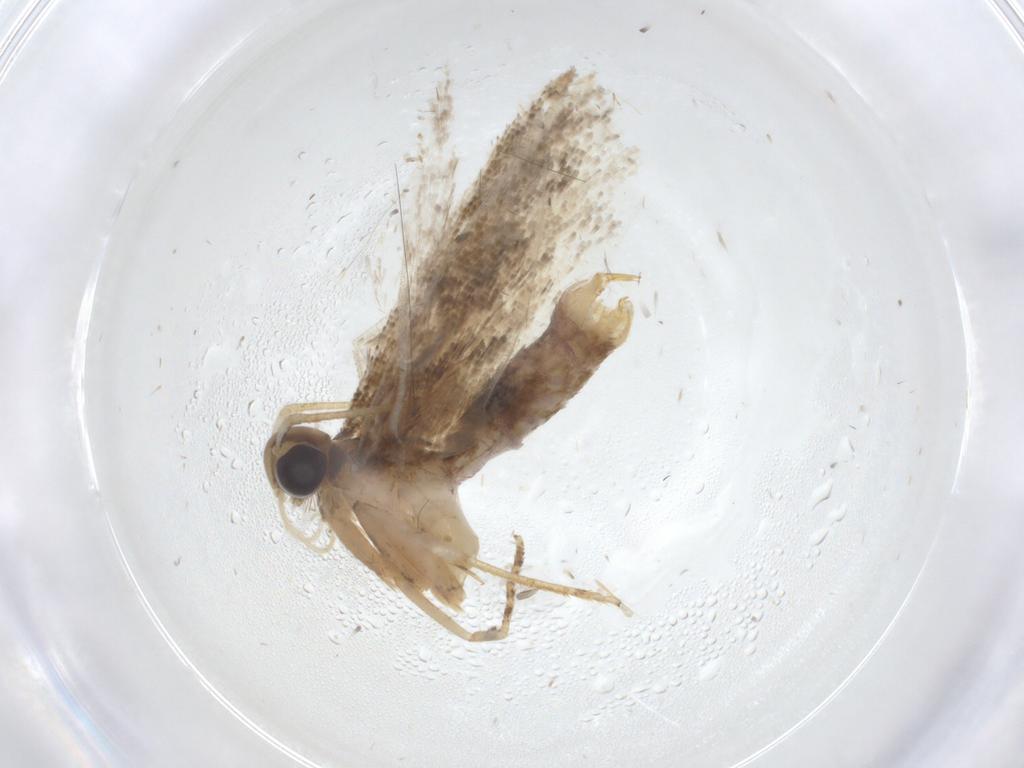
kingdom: Animalia
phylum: Arthropoda
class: Insecta
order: Lepidoptera
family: Gelechiidae
